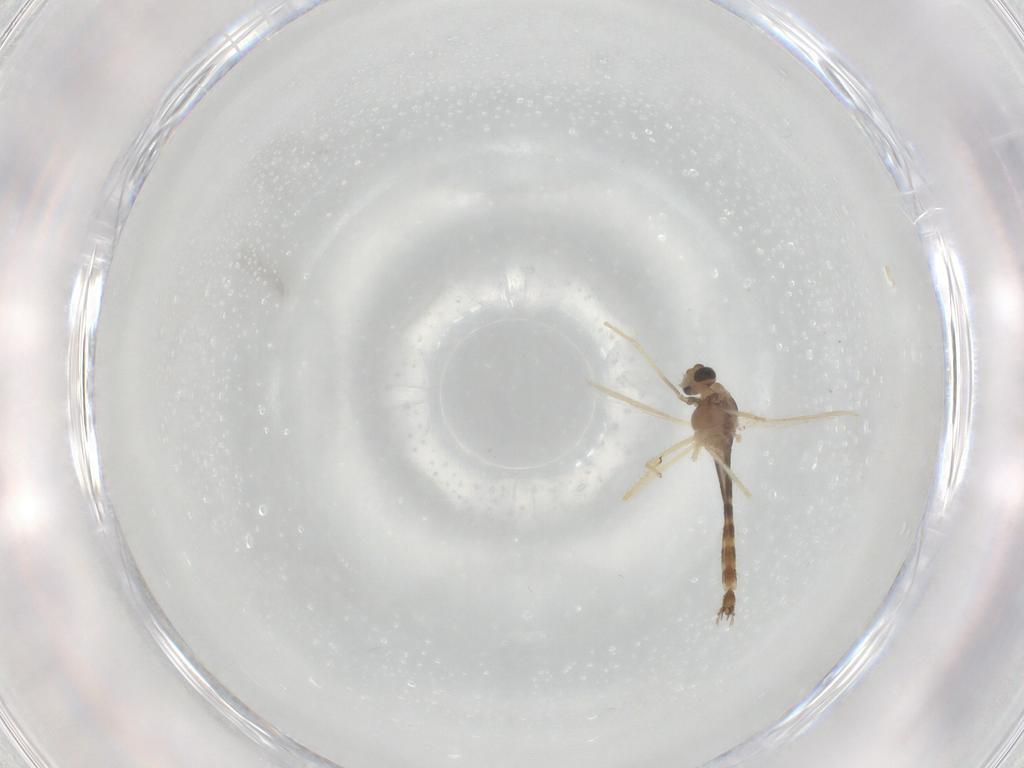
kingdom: Animalia
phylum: Arthropoda
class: Insecta
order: Diptera
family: Chironomidae
